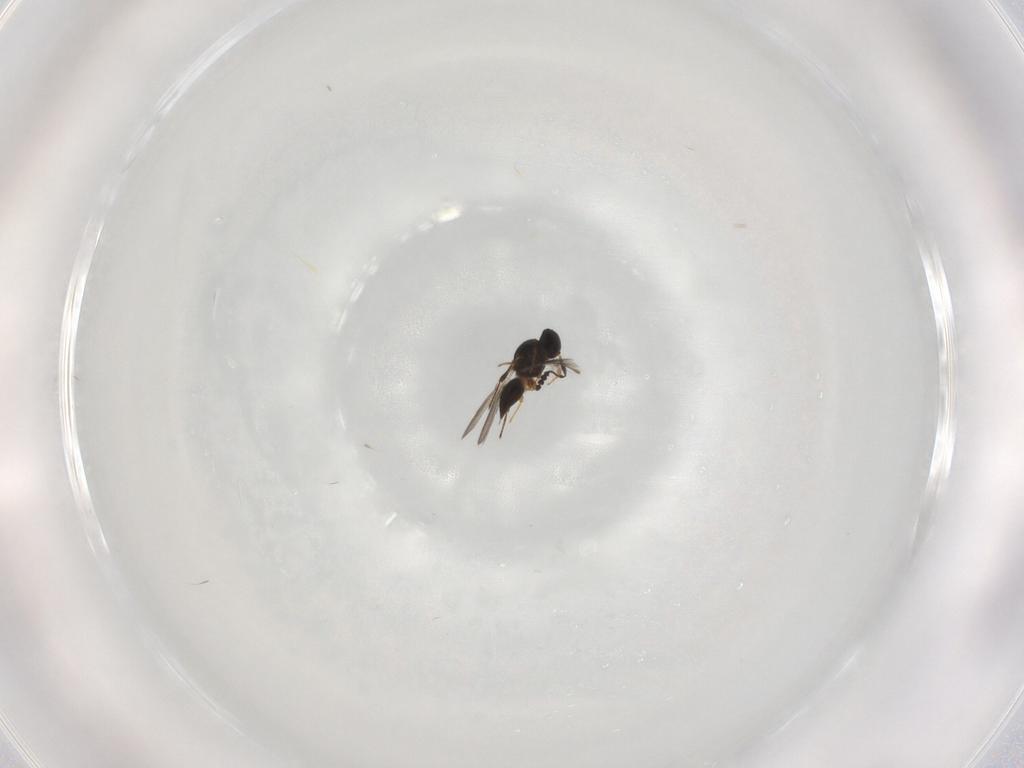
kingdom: Animalia
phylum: Arthropoda
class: Insecta
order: Hymenoptera
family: Platygastridae
